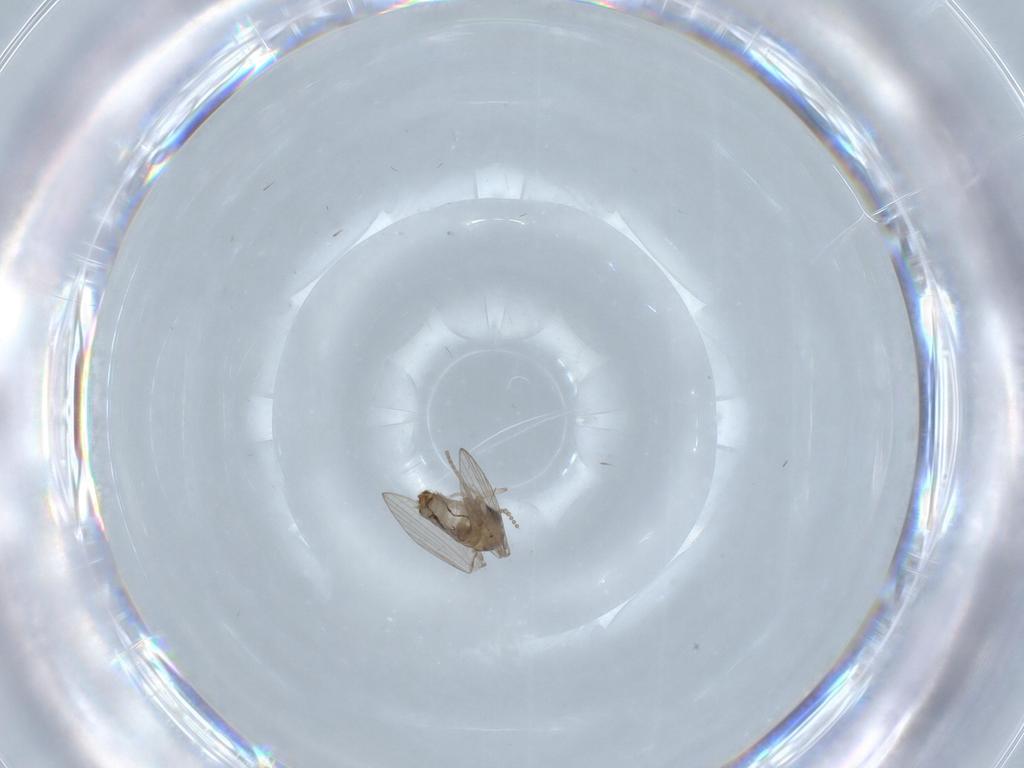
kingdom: Animalia
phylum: Arthropoda
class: Insecta
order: Diptera
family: Psychodidae
